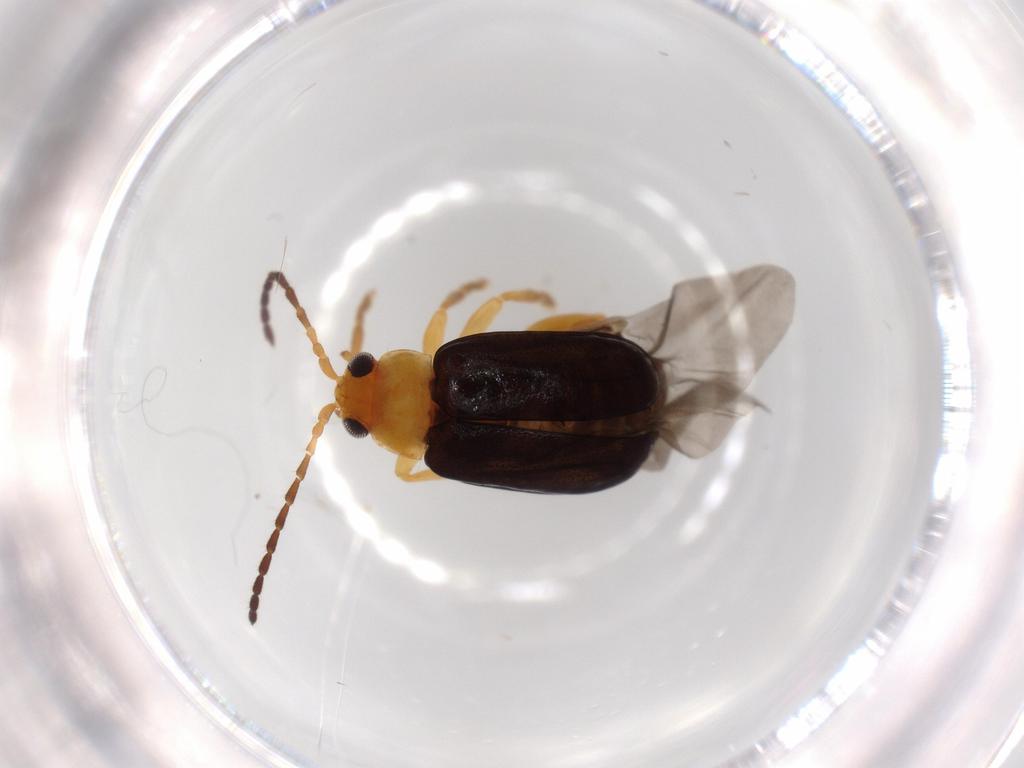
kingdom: Animalia
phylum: Arthropoda
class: Insecta
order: Coleoptera
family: Chrysomelidae
